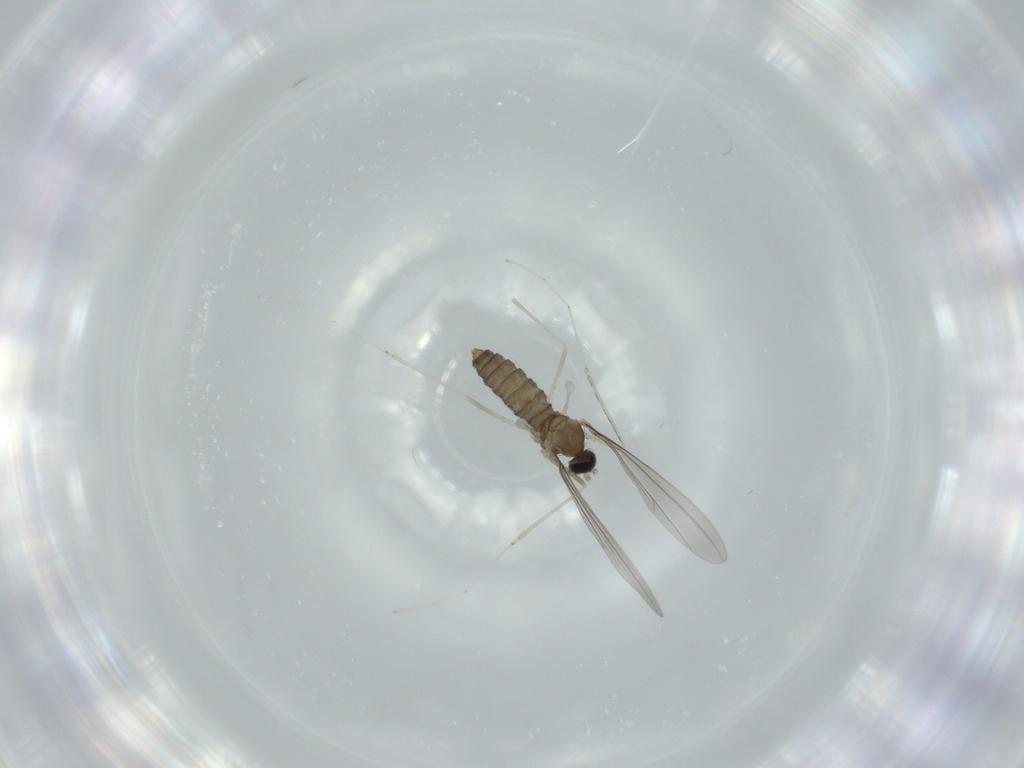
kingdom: Animalia
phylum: Arthropoda
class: Insecta
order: Diptera
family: Cecidomyiidae
